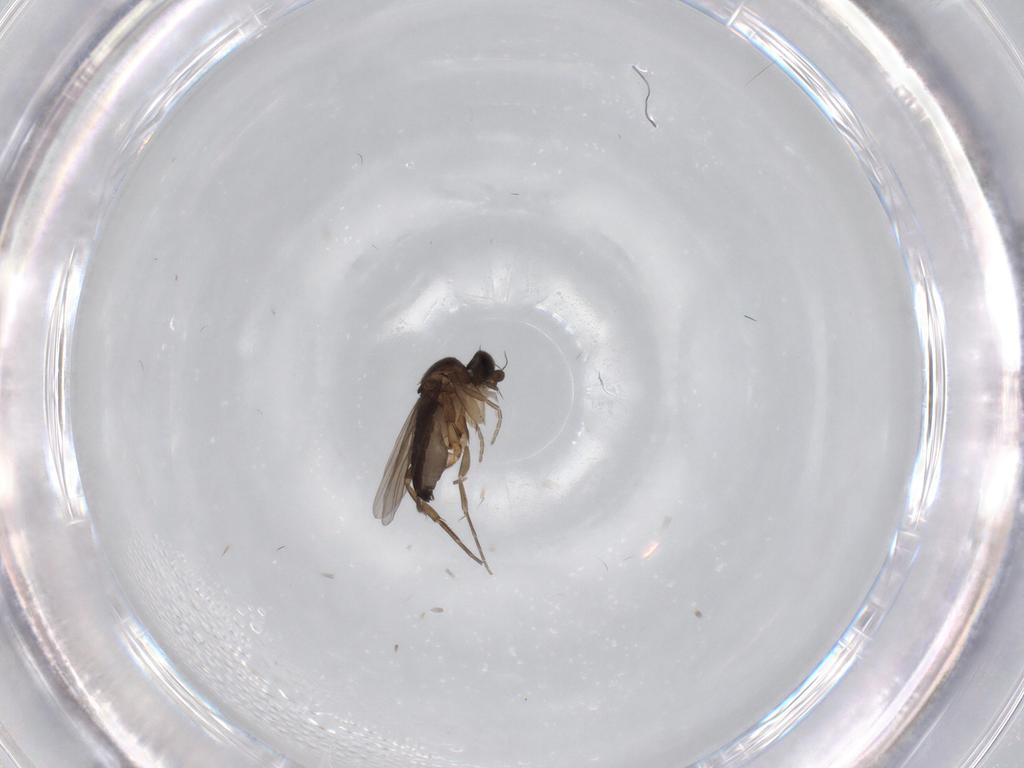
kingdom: Animalia
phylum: Arthropoda
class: Insecta
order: Diptera
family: Phoridae
